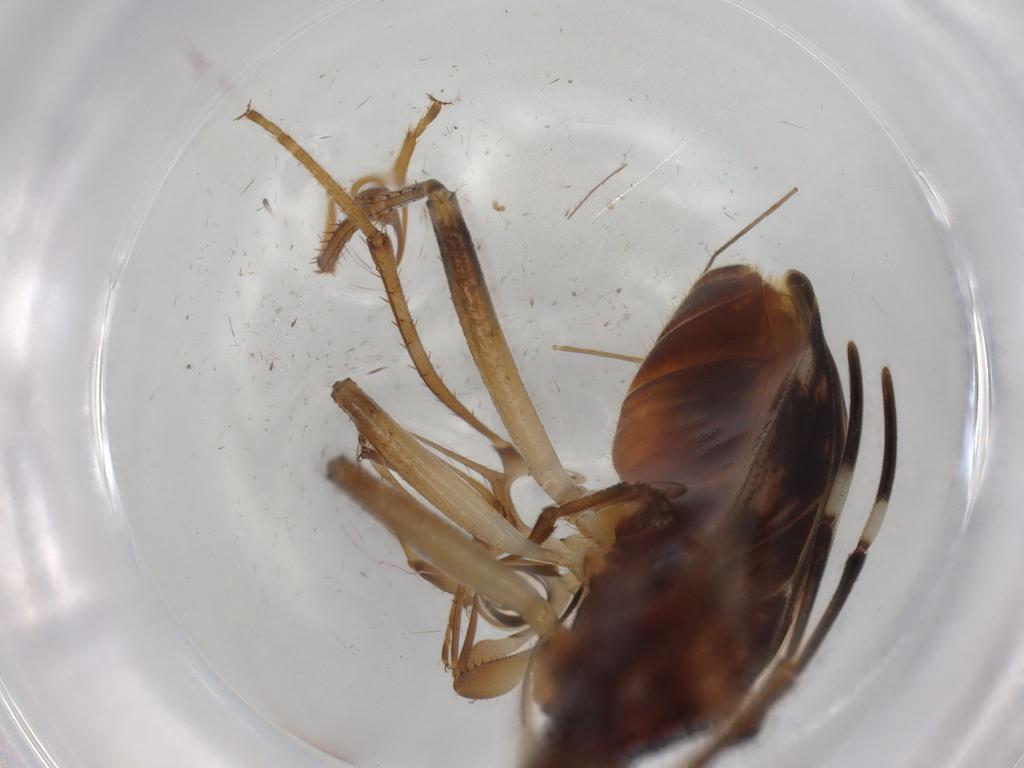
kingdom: Animalia
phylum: Arthropoda
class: Insecta
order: Hemiptera
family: Rhyparochromidae
